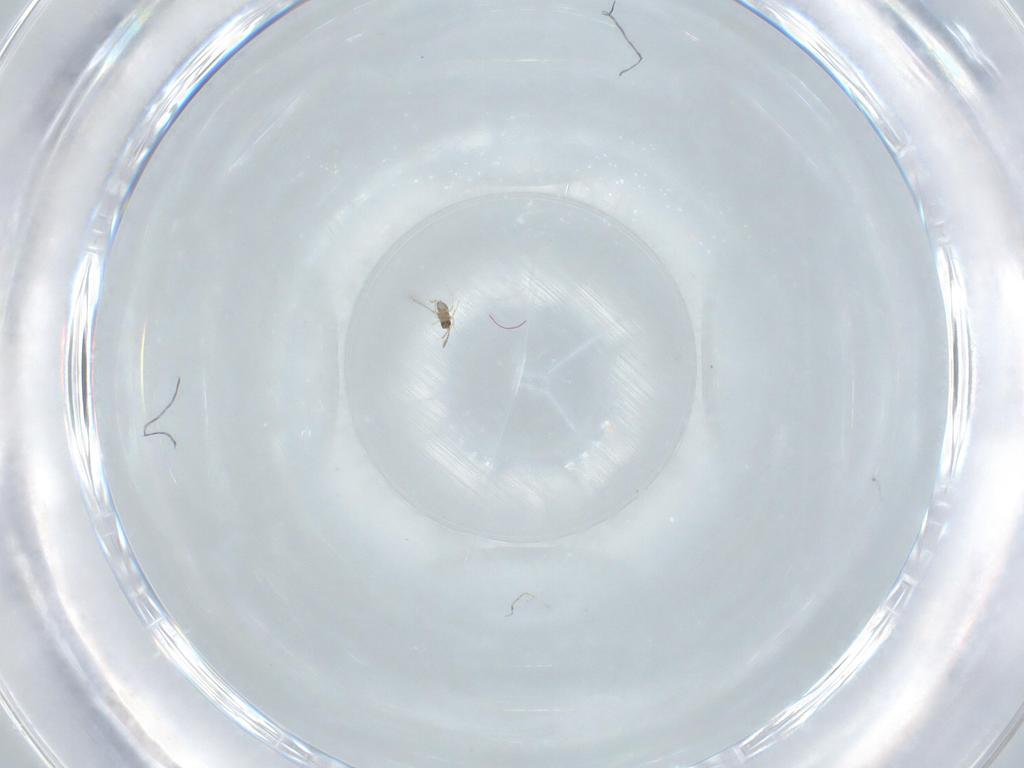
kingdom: Animalia
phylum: Arthropoda
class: Insecta
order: Hymenoptera
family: Mymaridae
